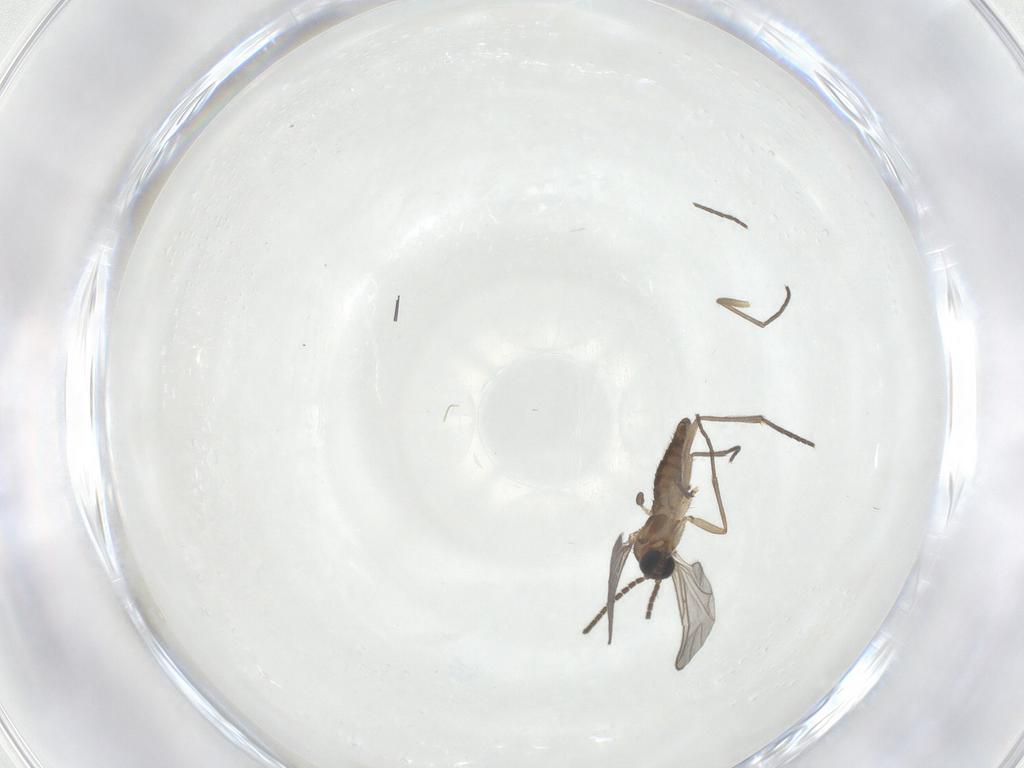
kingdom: Animalia
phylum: Arthropoda
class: Insecta
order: Diptera
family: Sciaridae
